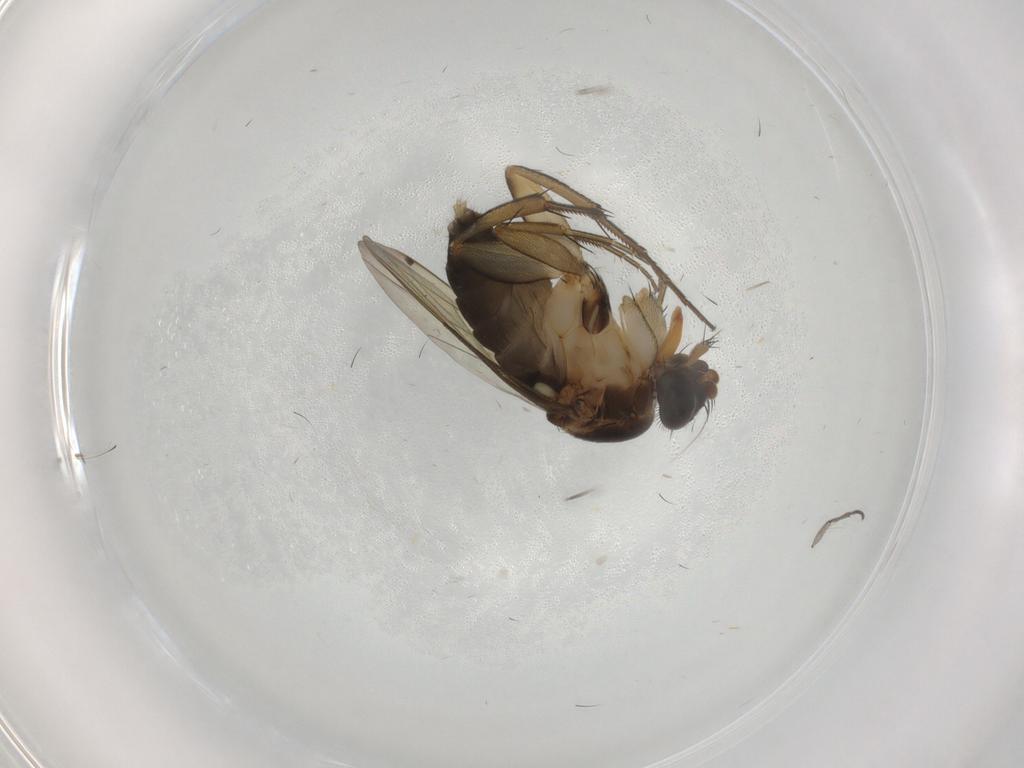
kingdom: Animalia
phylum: Arthropoda
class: Insecta
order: Diptera
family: Phoridae
